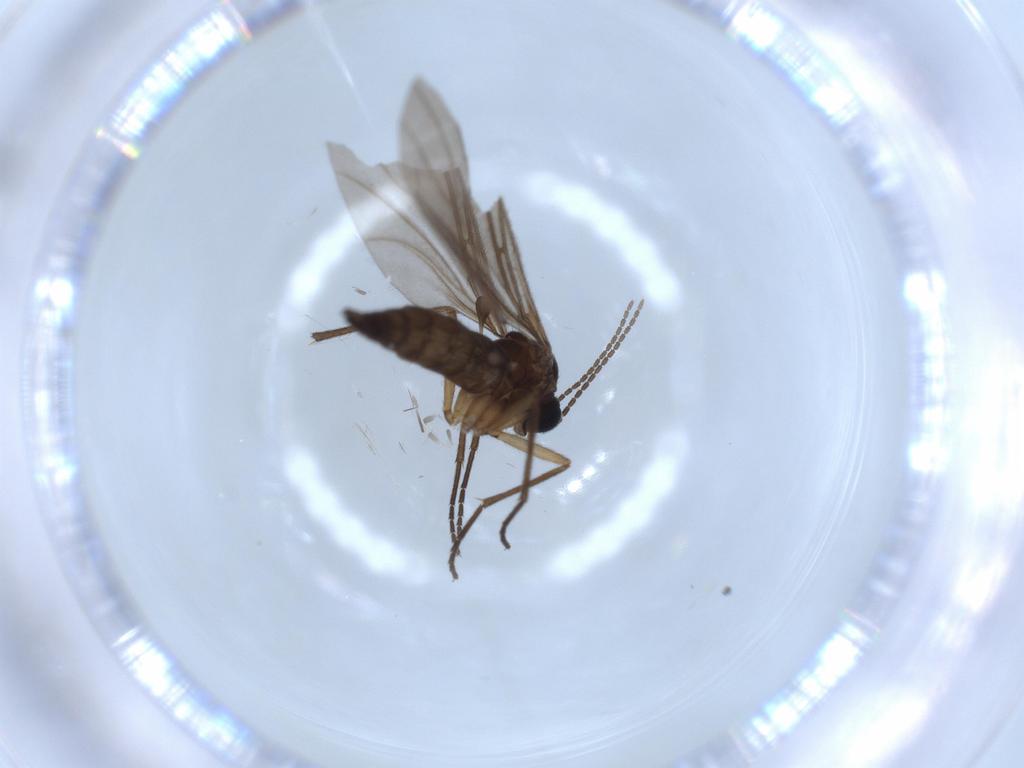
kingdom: Animalia
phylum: Arthropoda
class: Insecta
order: Diptera
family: Sciaridae
